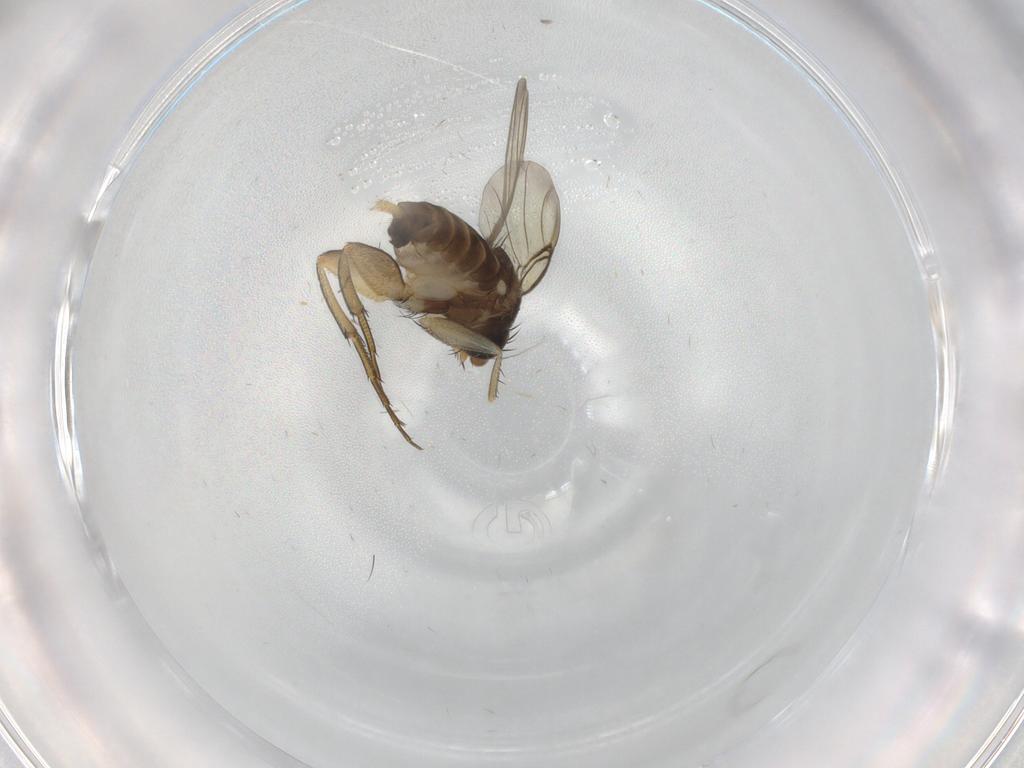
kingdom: Animalia
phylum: Arthropoda
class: Insecta
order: Diptera
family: Phoridae
